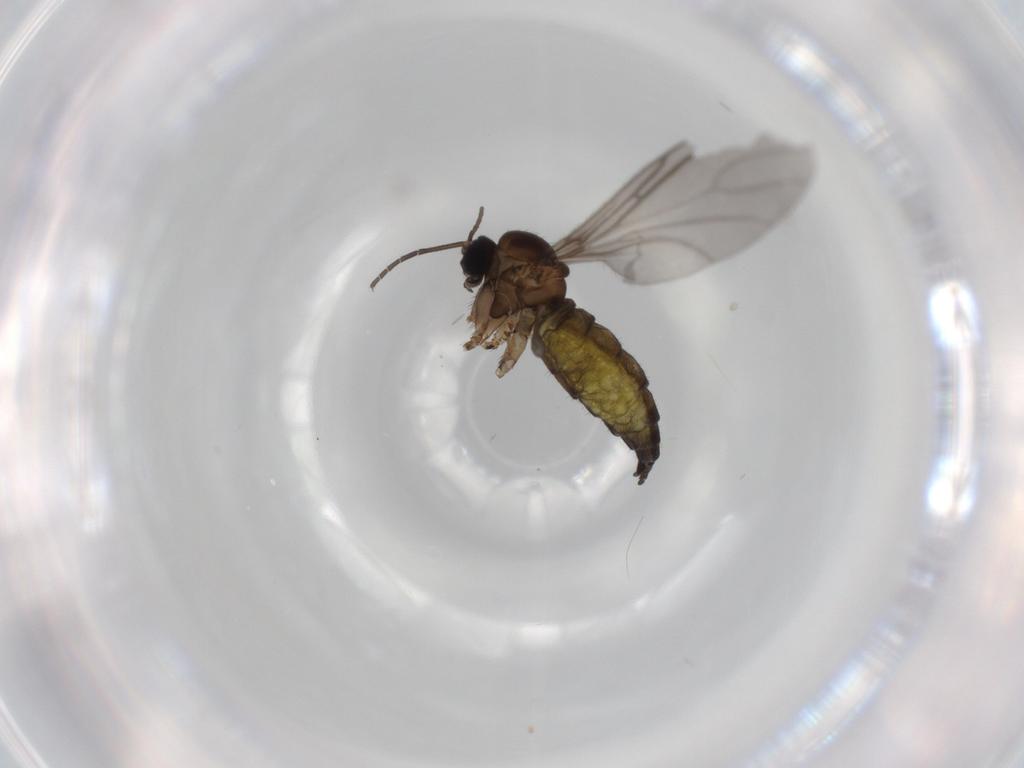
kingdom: Animalia
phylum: Arthropoda
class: Insecta
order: Diptera
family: Sciaridae
